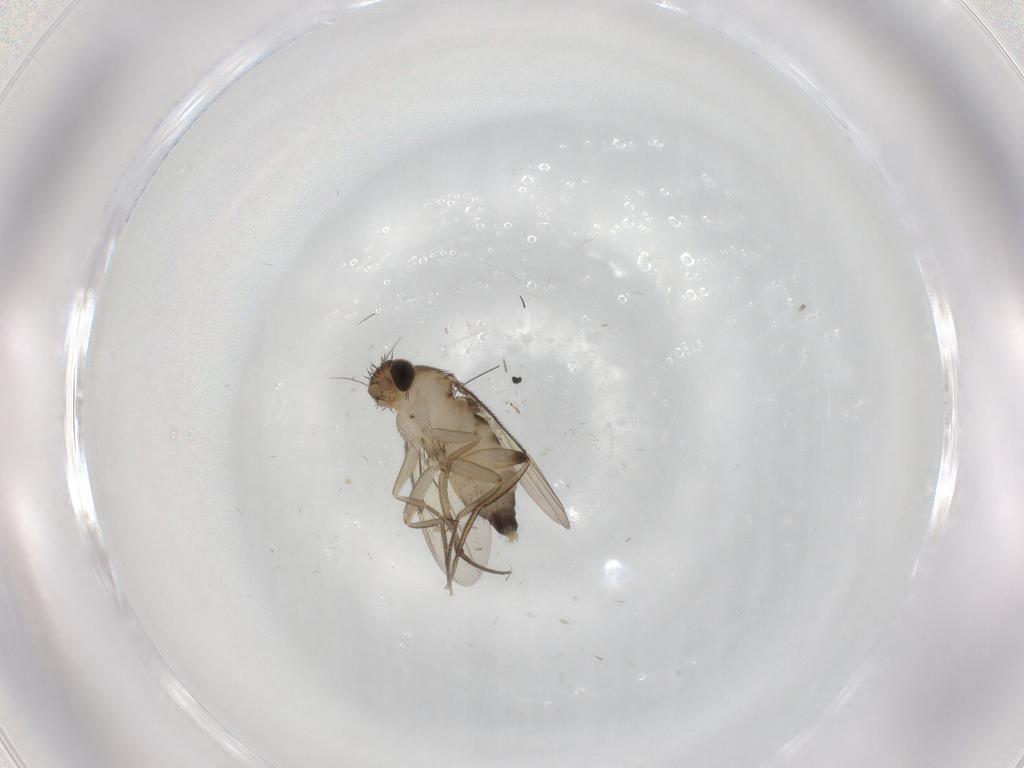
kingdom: Animalia
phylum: Arthropoda
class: Insecta
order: Diptera
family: Phoridae
